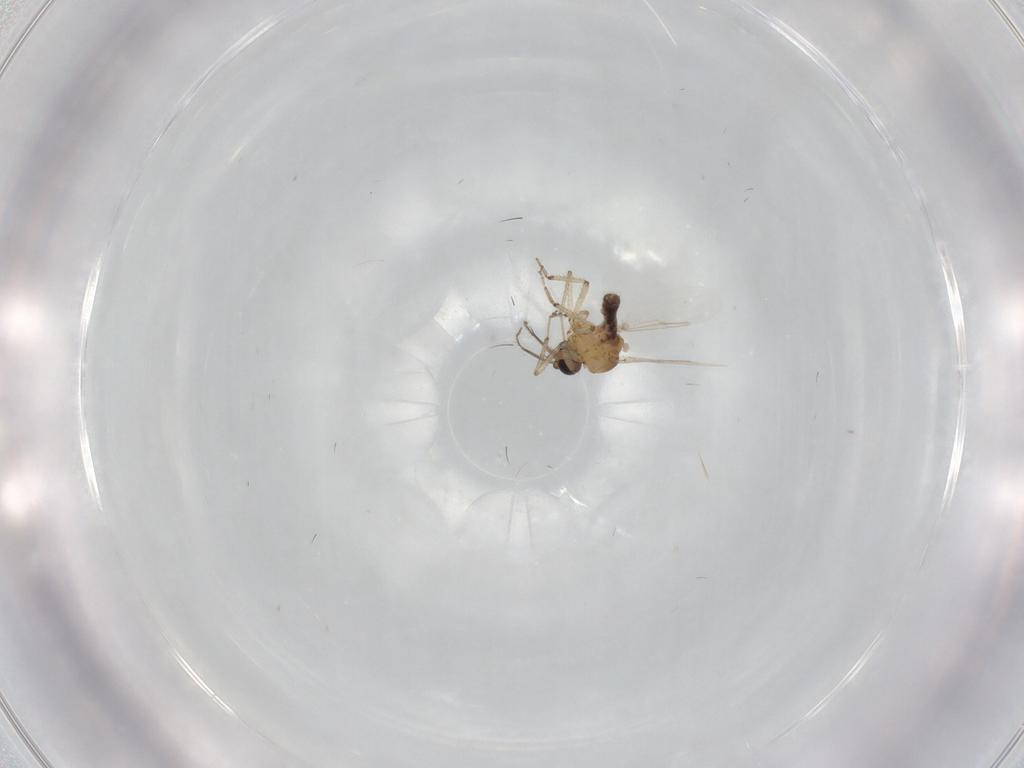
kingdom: Animalia
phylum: Arthropoda
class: Insecta
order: Diptera
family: Ceratopogonidae
